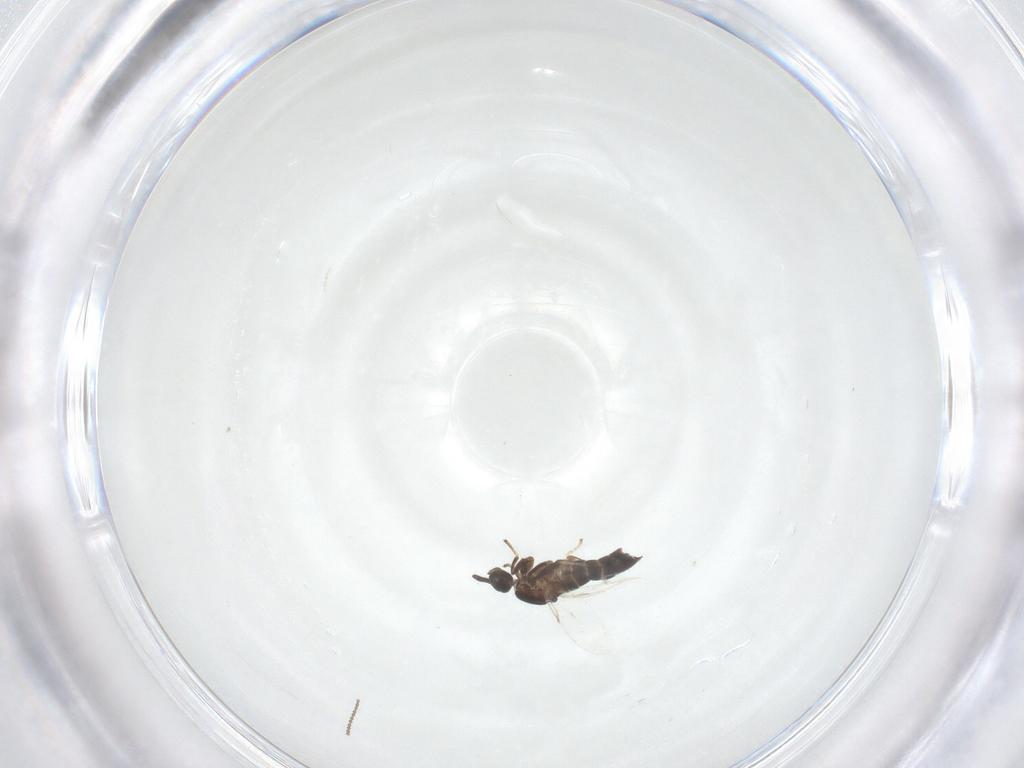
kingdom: Animalia
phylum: Arthropoda
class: Insecta
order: Diptera
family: Scatopsidae
